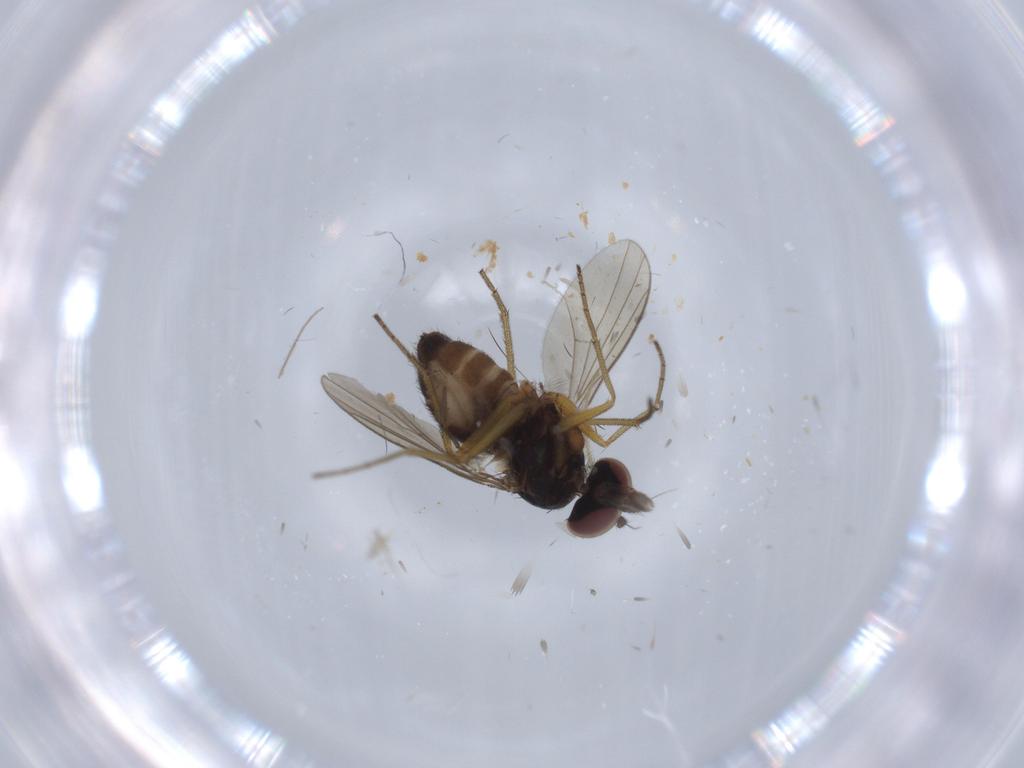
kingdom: Animalia
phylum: Arthropoda
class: Insecta
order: Diptera
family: Dolichopodidae
